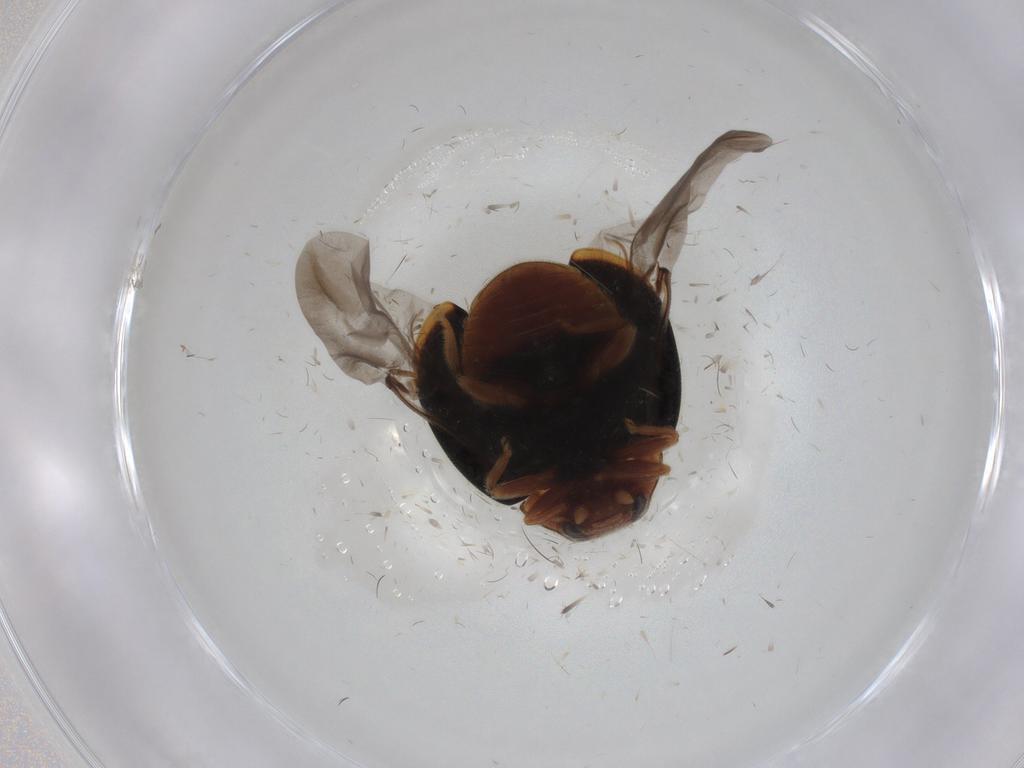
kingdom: Animalia
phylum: Arthropoda
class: Insecta
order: Coleoptera
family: Coccinellidae
